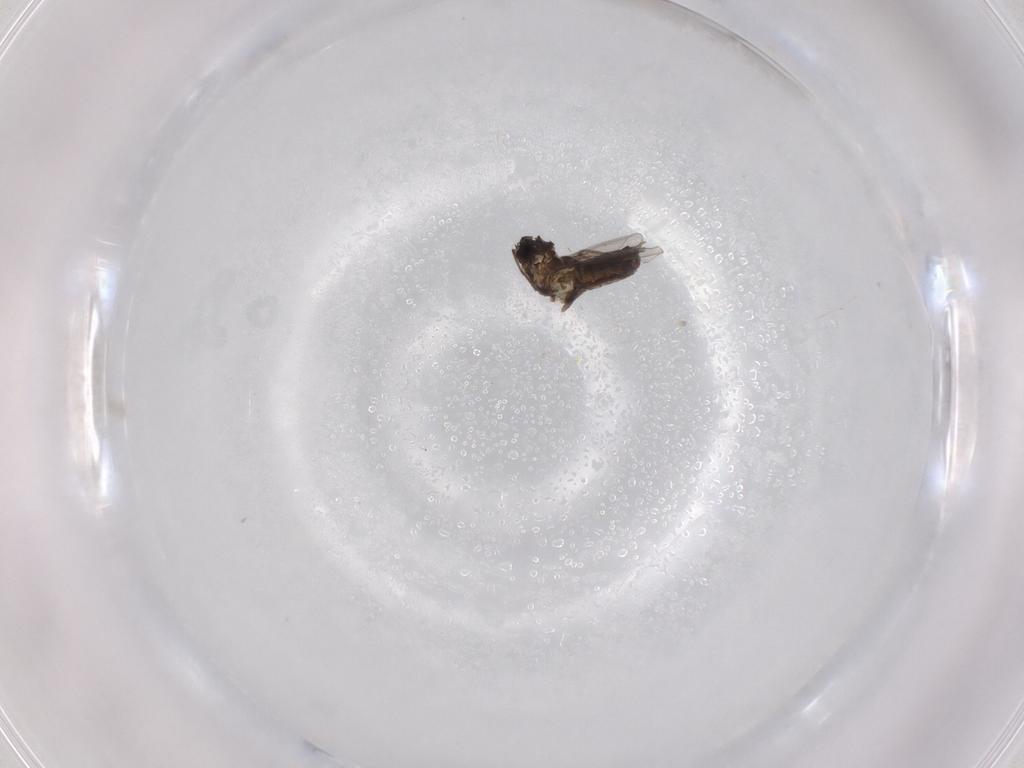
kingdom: Animalia
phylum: Arthropoda
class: Insecta
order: Diptera
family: Chironomidae
